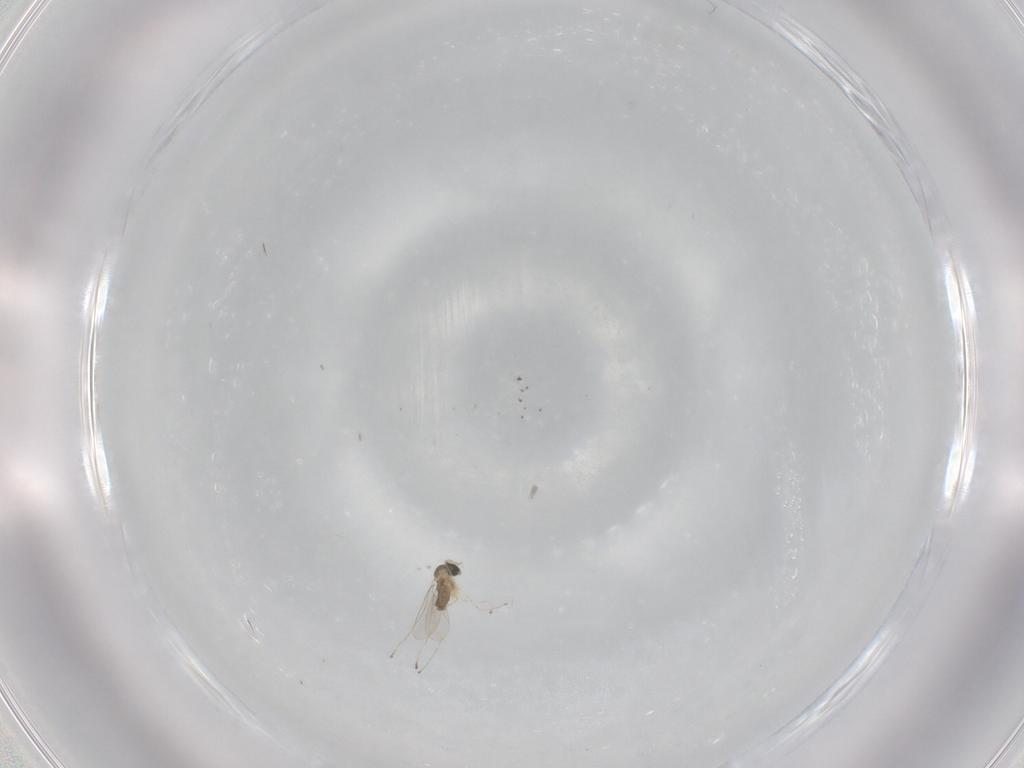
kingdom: Animalia
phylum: Arthropoda
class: Insecta
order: Diptera
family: Cecidomyiidae
